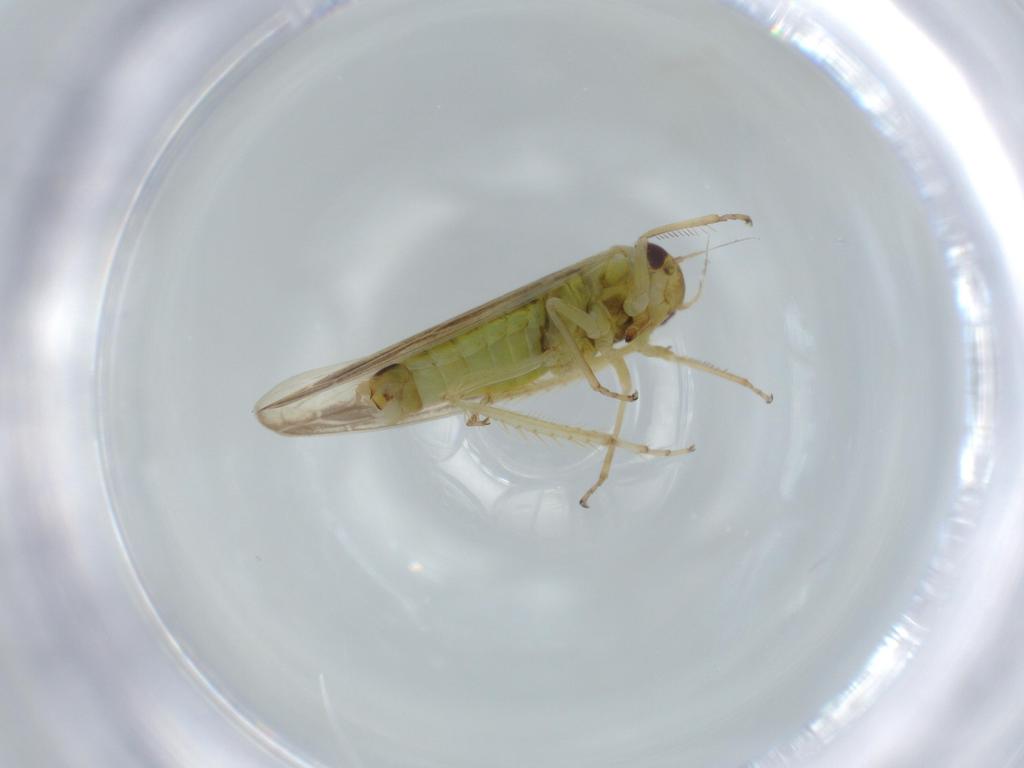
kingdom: Animalia
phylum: Arthropoda
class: Insecta
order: Hemiptera
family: Cicadellidae
